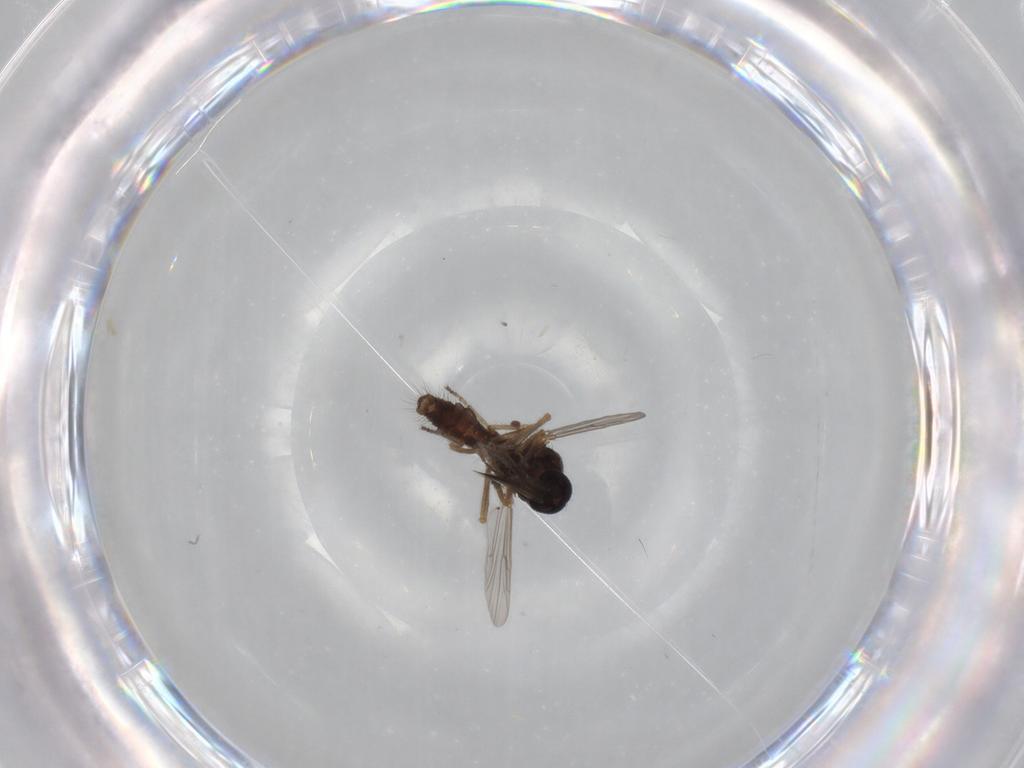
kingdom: Animalia
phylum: Arthropoda
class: Insecta
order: Diptera
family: Ceratopogonidae
